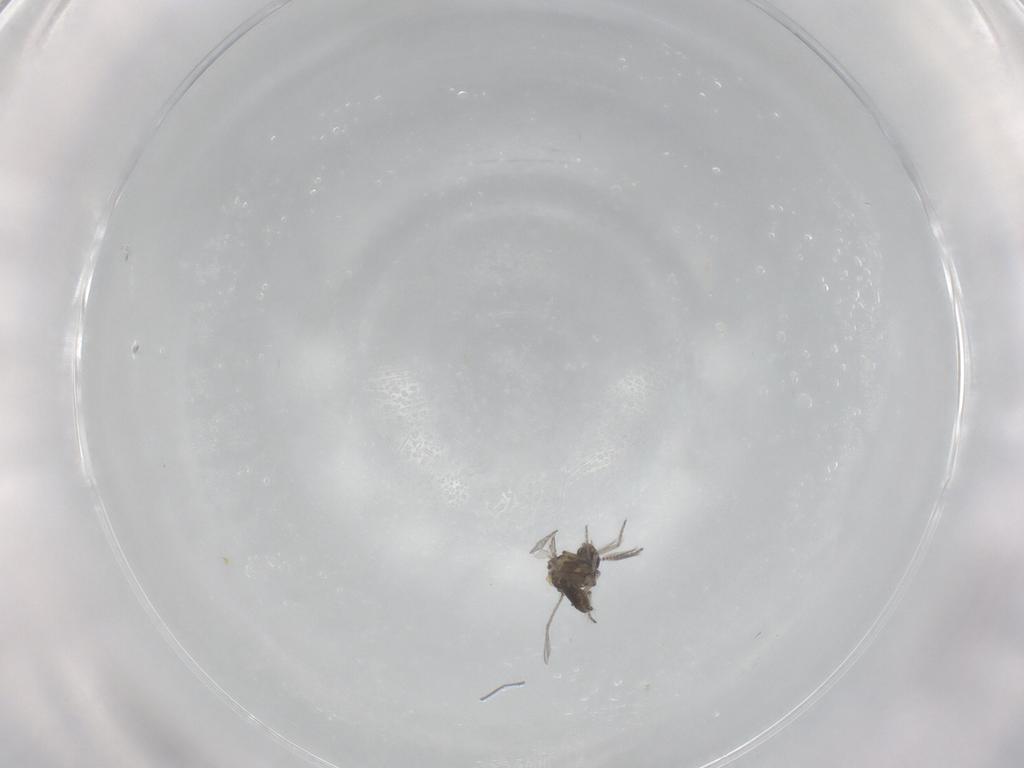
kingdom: Animalia
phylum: Arthropoda
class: Insecta
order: Diptera
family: Ceratopogonidae
